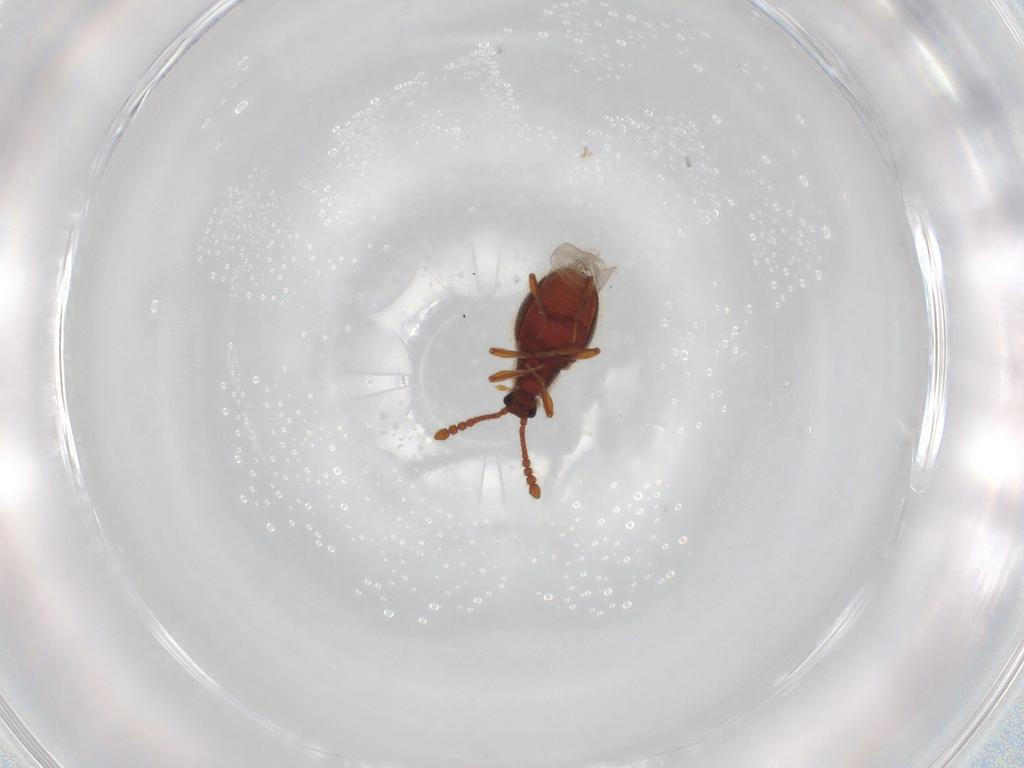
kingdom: Animalia
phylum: Arthropoda
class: Insecta
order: Coleoptera
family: Staphylinidae
